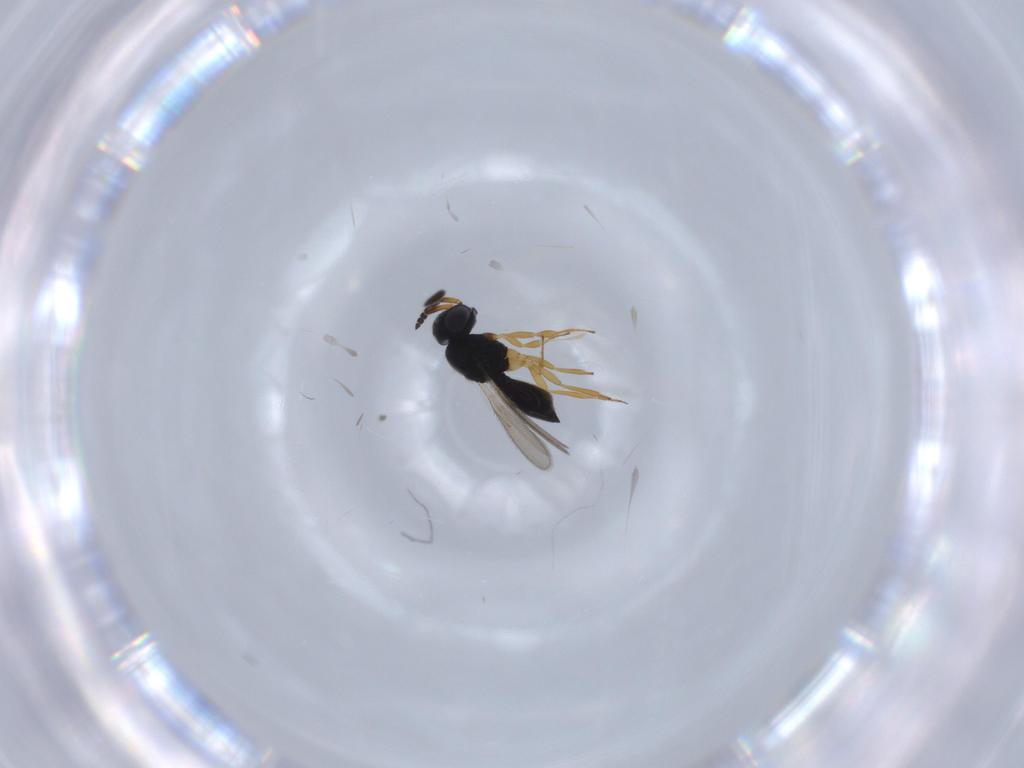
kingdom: Animalia
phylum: Arthropoda
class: Insecta
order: Hymenoptera
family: Scelionidae
